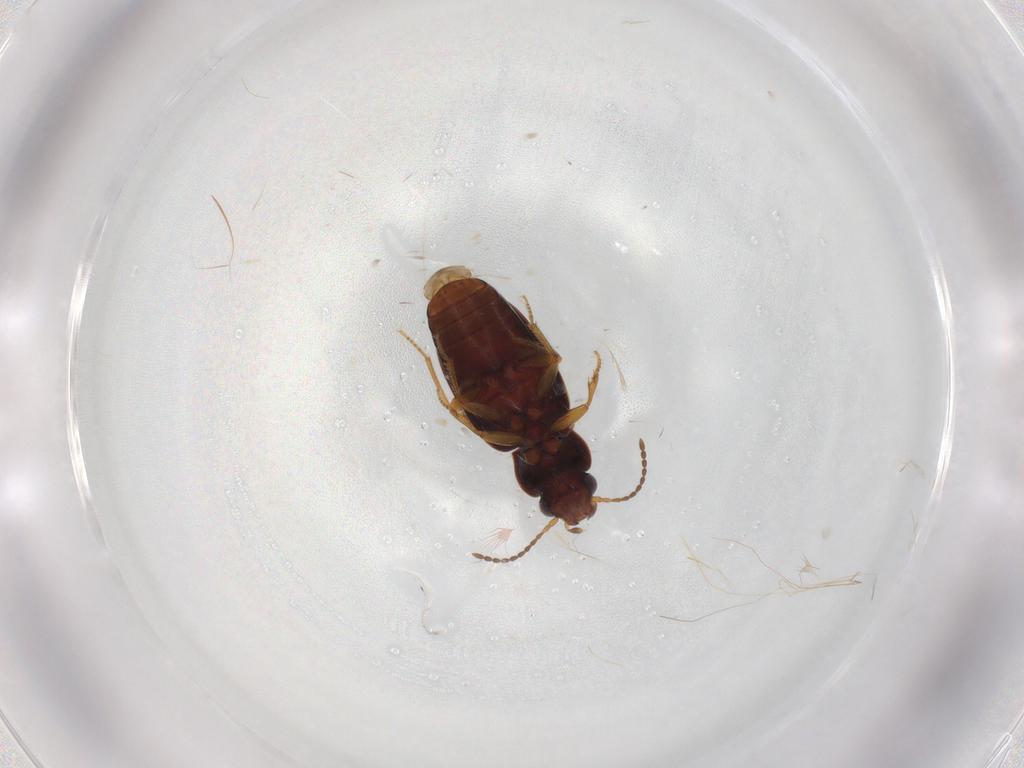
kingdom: Animalia
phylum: Arthropoda
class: Insecta
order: Coleoptera
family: Carabidae
